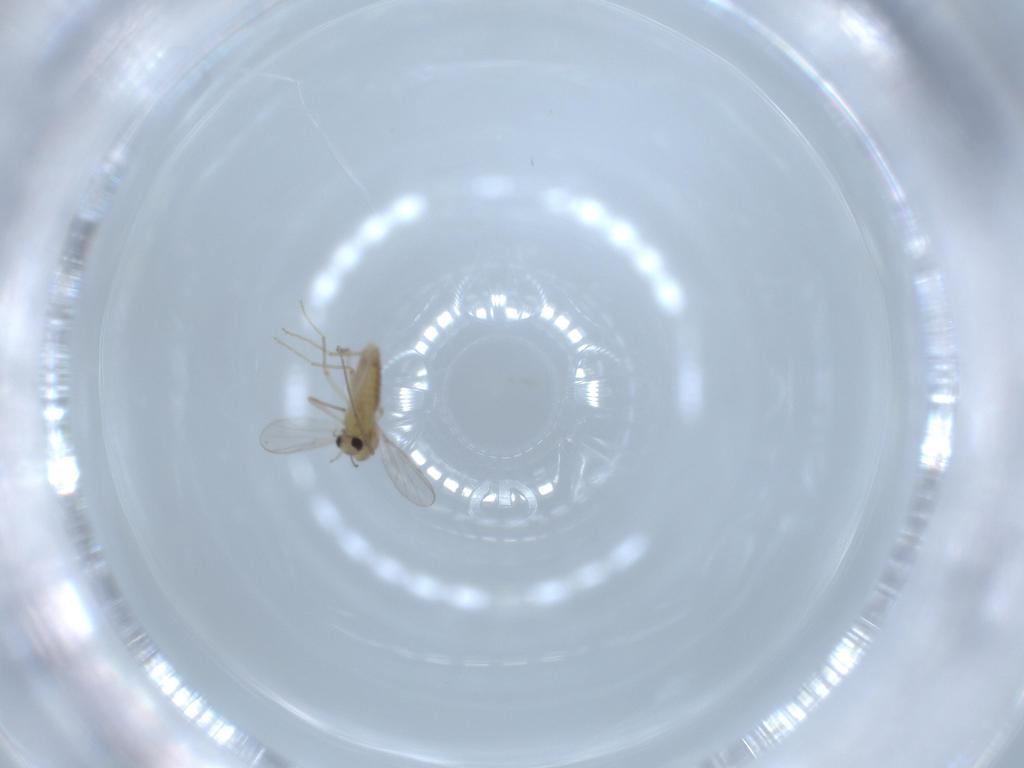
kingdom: Animalia
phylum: Arthropoda
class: Insecta
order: Diptera
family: Chironomidae
